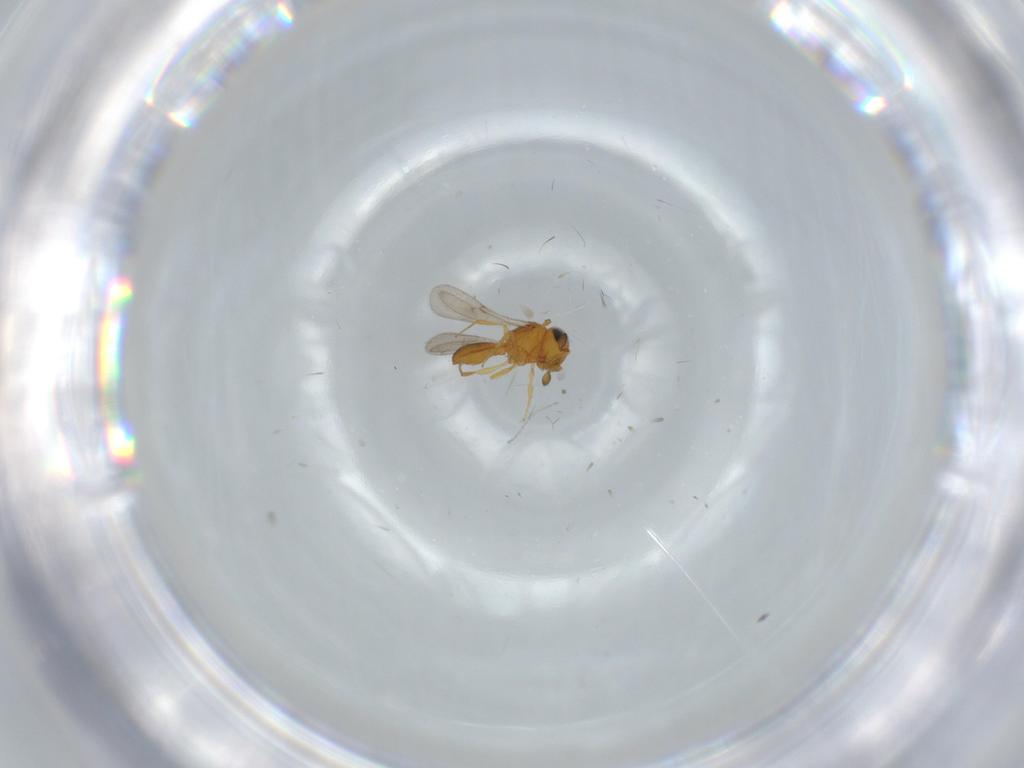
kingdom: Animalia
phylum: Arthropoda
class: Insecta
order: Hymenoptera
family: Scelionidae
